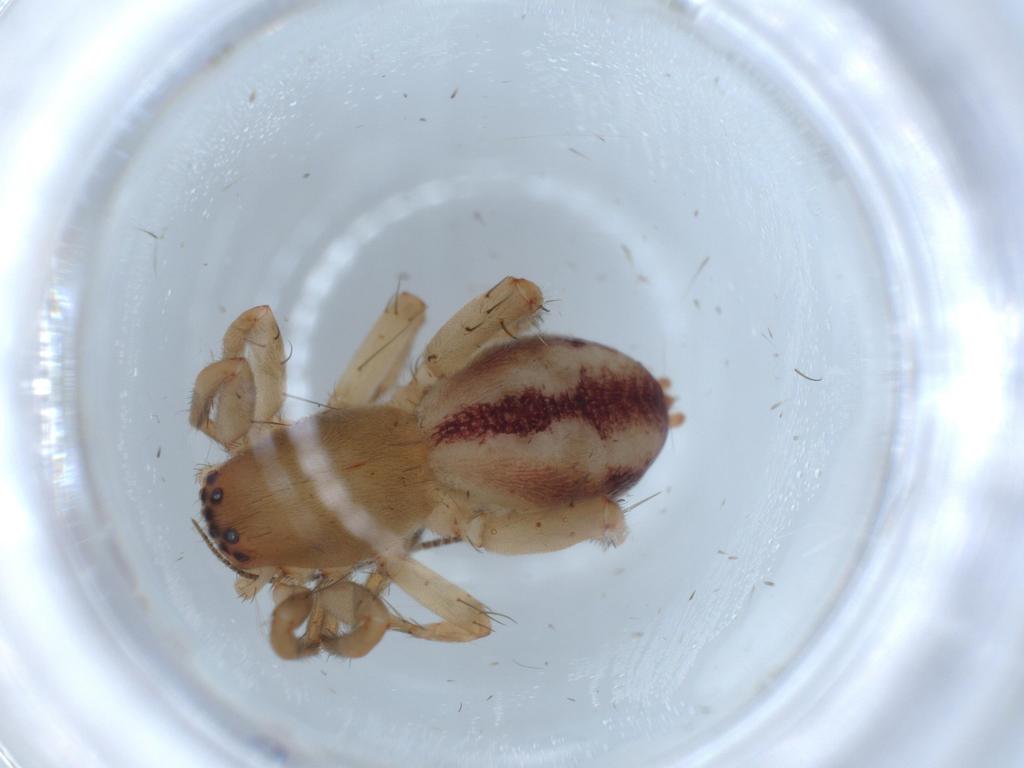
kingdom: Animalia
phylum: Arthropoda
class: Arachnida
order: Araneae
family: Clubionidae
